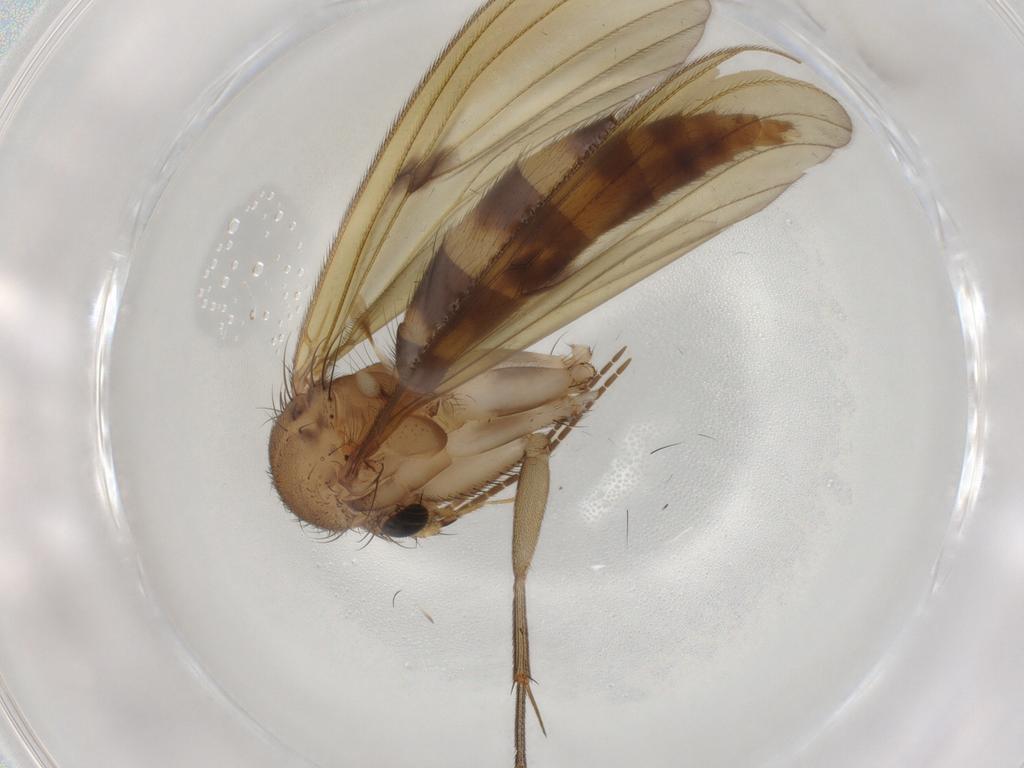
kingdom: Animalia
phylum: Arthropoda
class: Insecta
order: Diptera
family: Mycetophilidae
